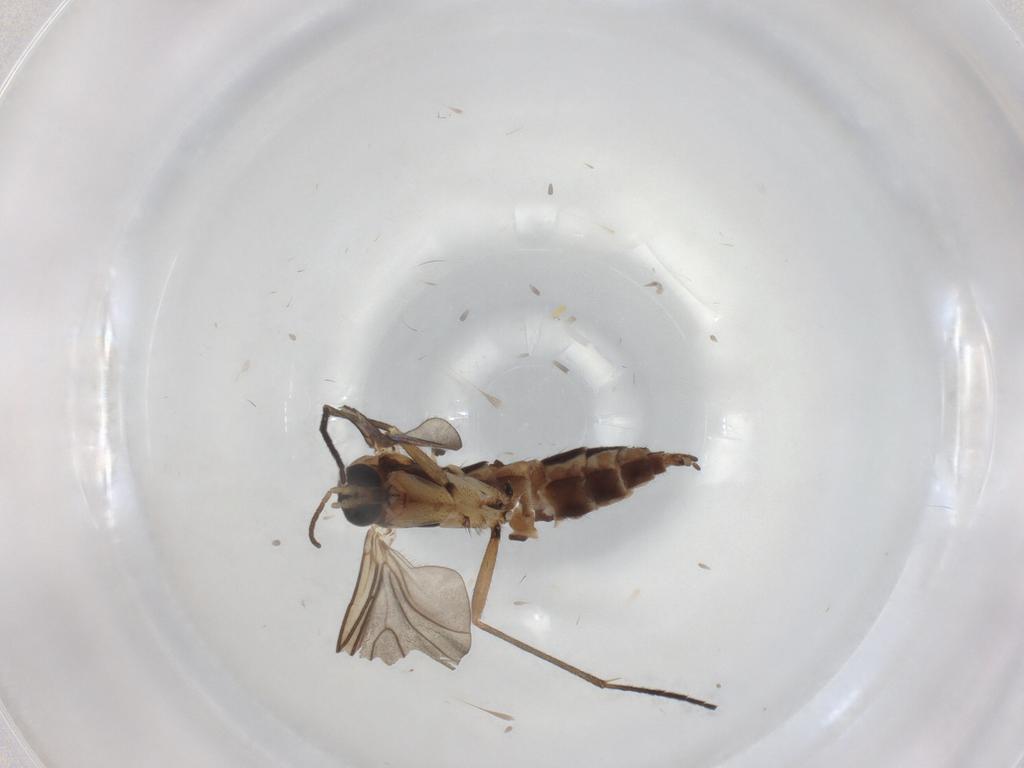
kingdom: Animalia
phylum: Arthropoda
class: Insecta
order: Diptera
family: Sciaridae
